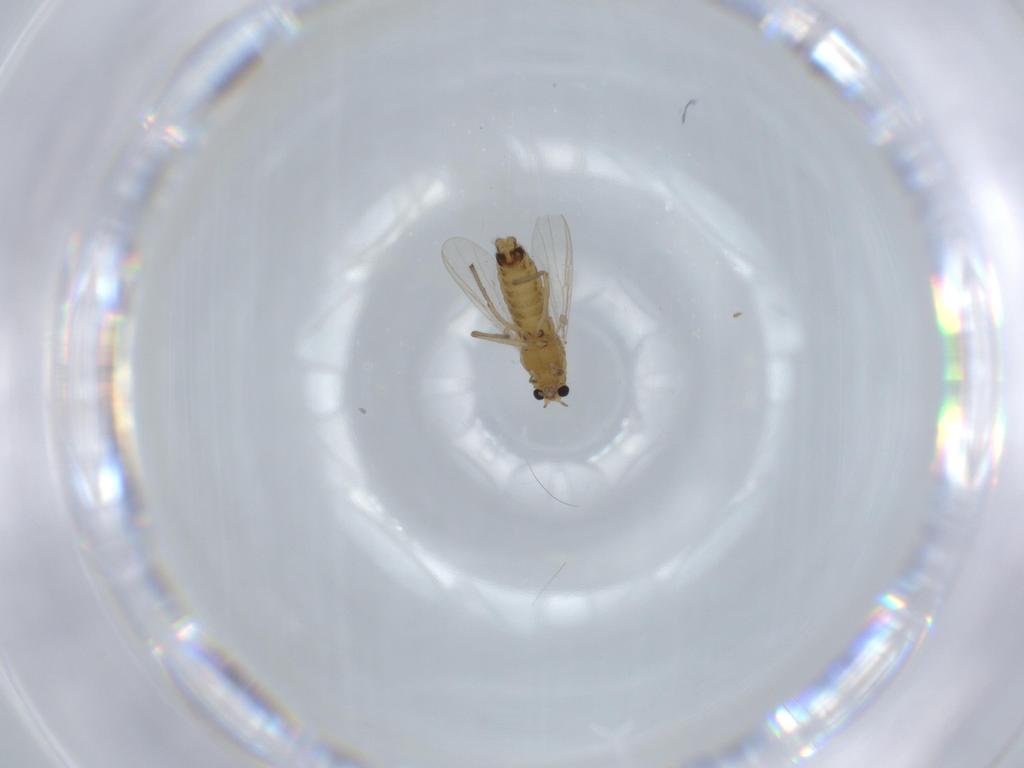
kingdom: Animalia
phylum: Arthropoda
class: Insecta
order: Diptera
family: Chironomidae
